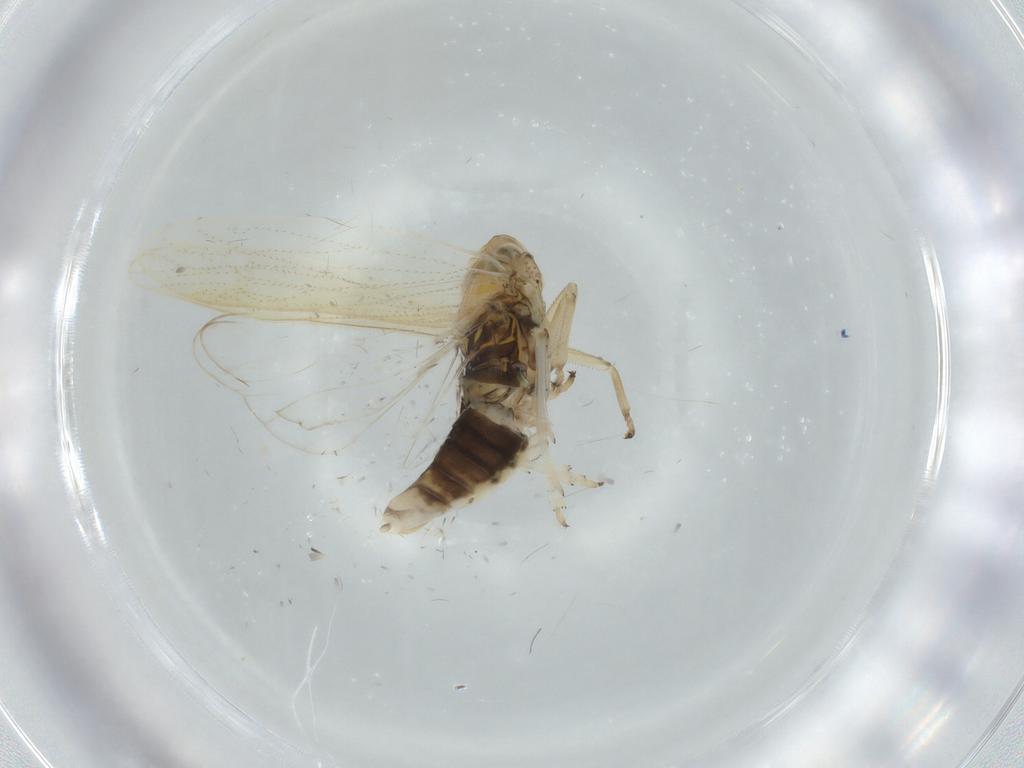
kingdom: Animalia
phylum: Arthropoda
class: Insecta
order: Hemiptera
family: Delphacidae
